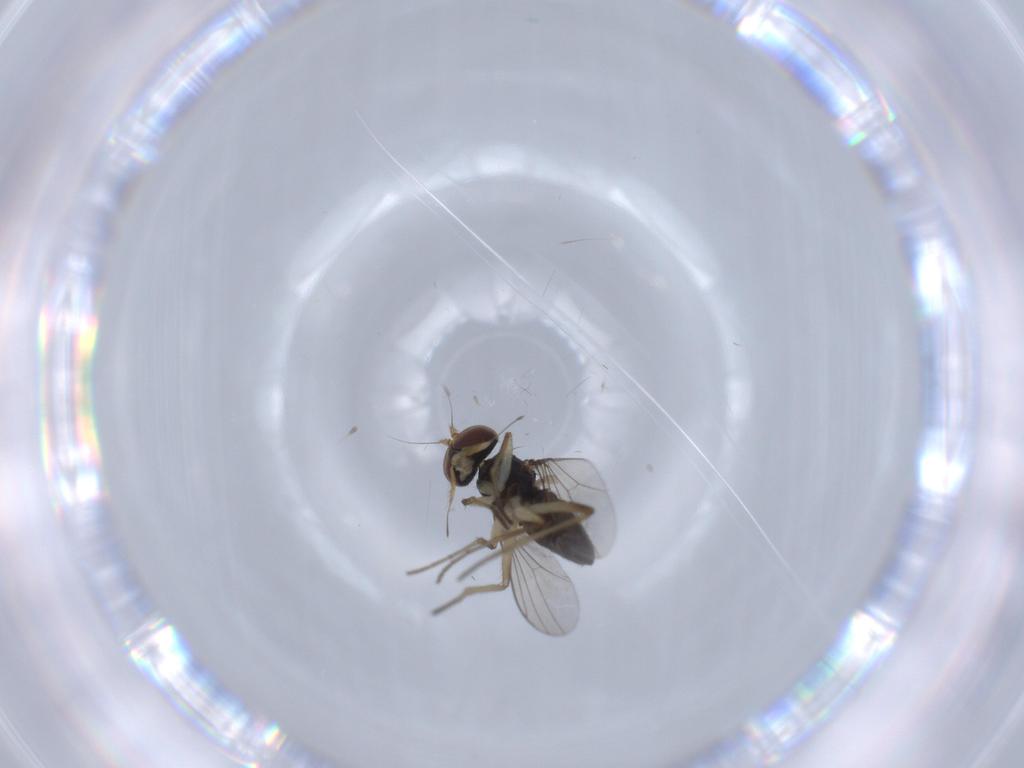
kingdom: Animalia
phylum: Arthropoda
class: Insecta
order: Diptera
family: Dolichopodidae
